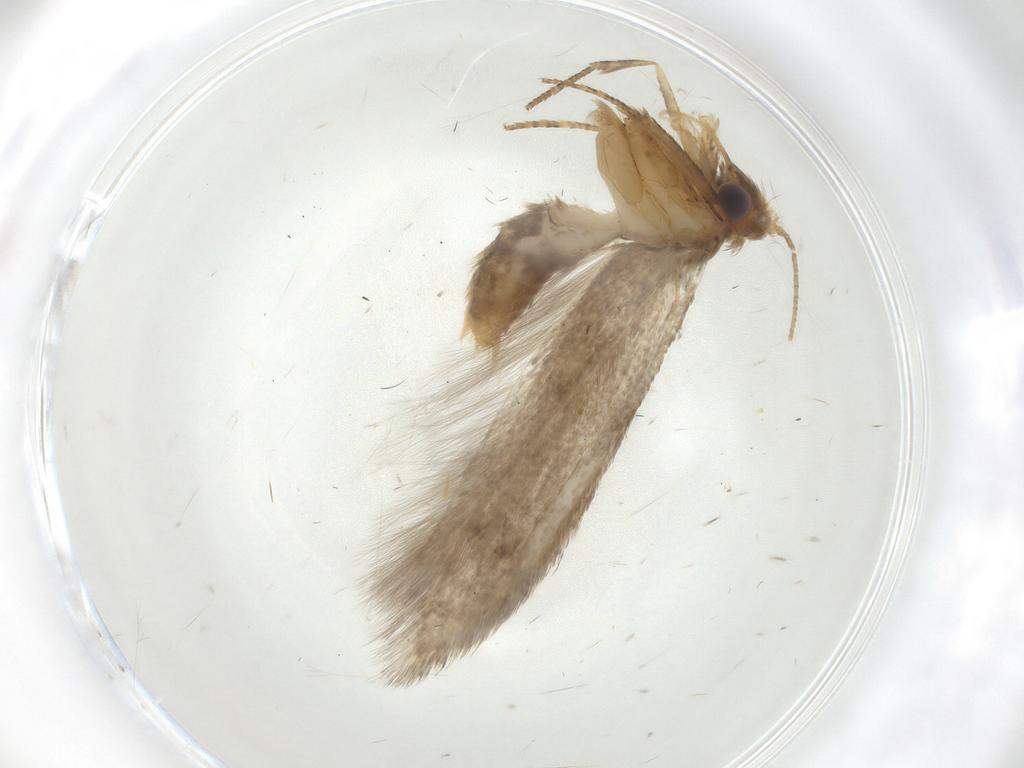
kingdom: Animalia
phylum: Arthropoda
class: Insecta
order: Lepidoptera
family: Coleophoridae
